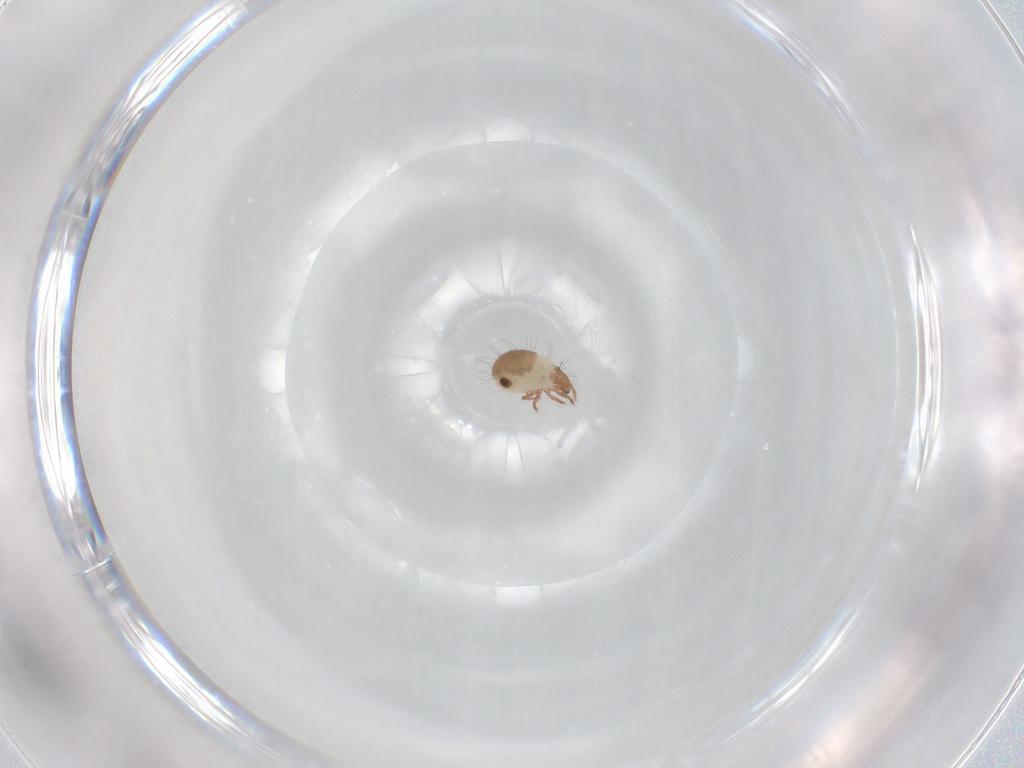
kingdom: Animalia
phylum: Arthropoda
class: Arachnida
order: Sarcoptiformes
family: Humerobatidae
